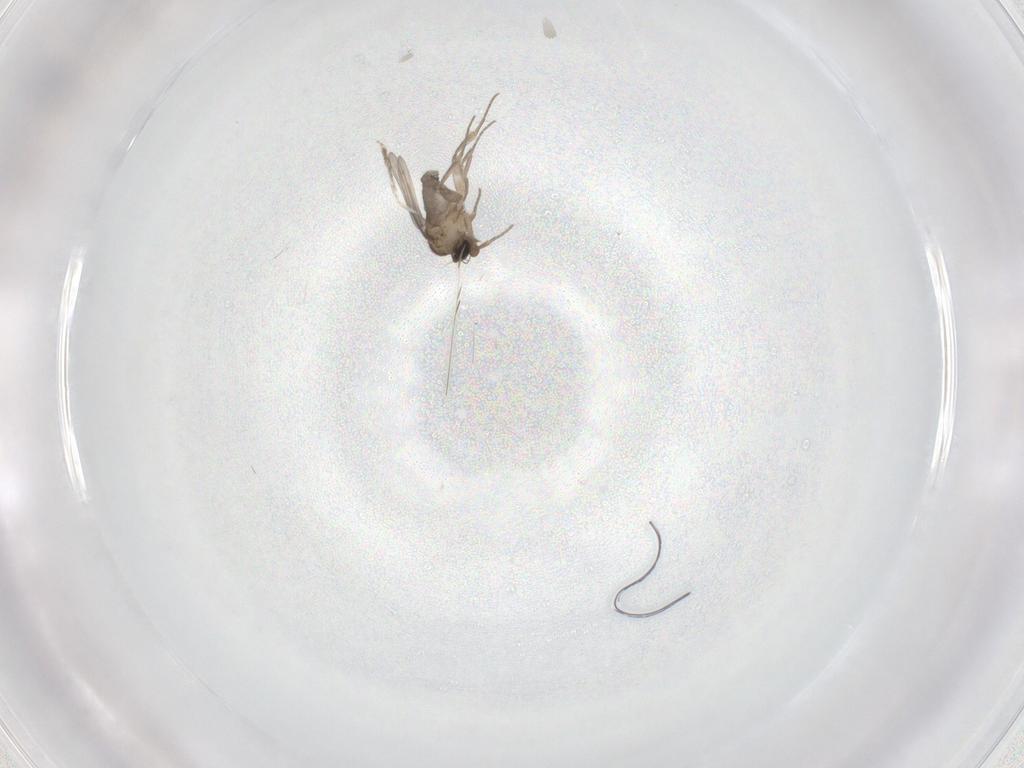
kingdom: Animalia
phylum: Arthropoda
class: Insecta
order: Diptera
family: Cecidomyiidae
